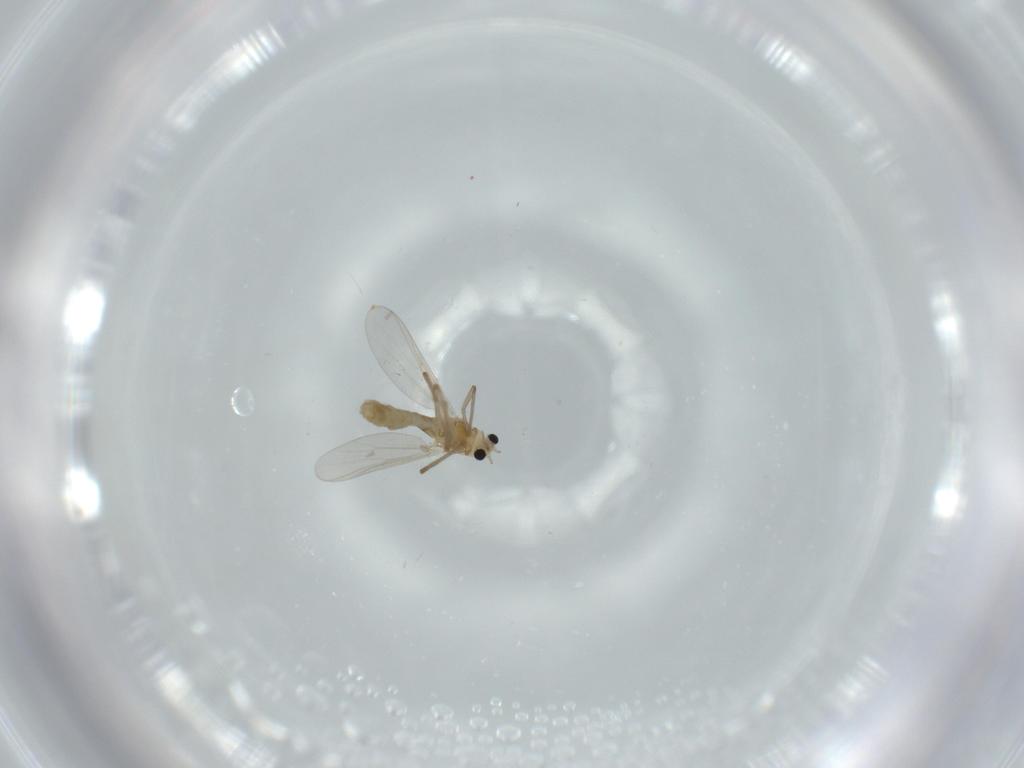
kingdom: Animalia
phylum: Arthropoda
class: Insecta
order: Diptera
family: Chironomidae
